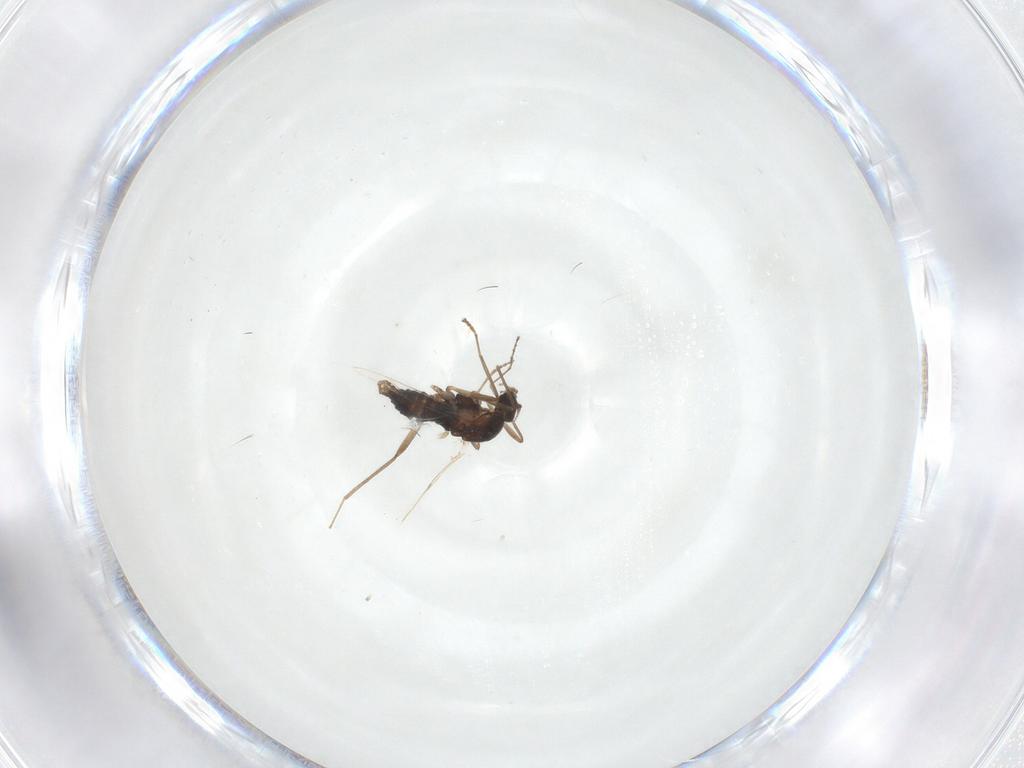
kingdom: Animalia
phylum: Arthropoda
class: Insecta
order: Diptera
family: Cecidomyiidae
